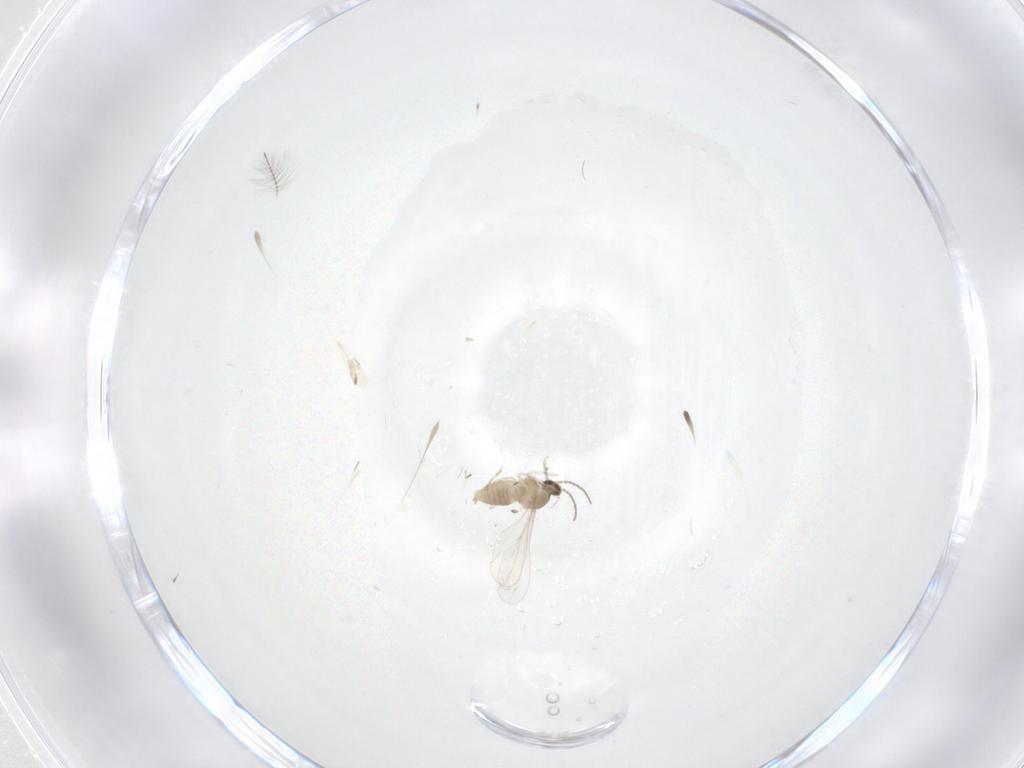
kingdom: Animalia
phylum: Arthropoda
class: Insecta
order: Diptera
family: Cecidomyiidae
